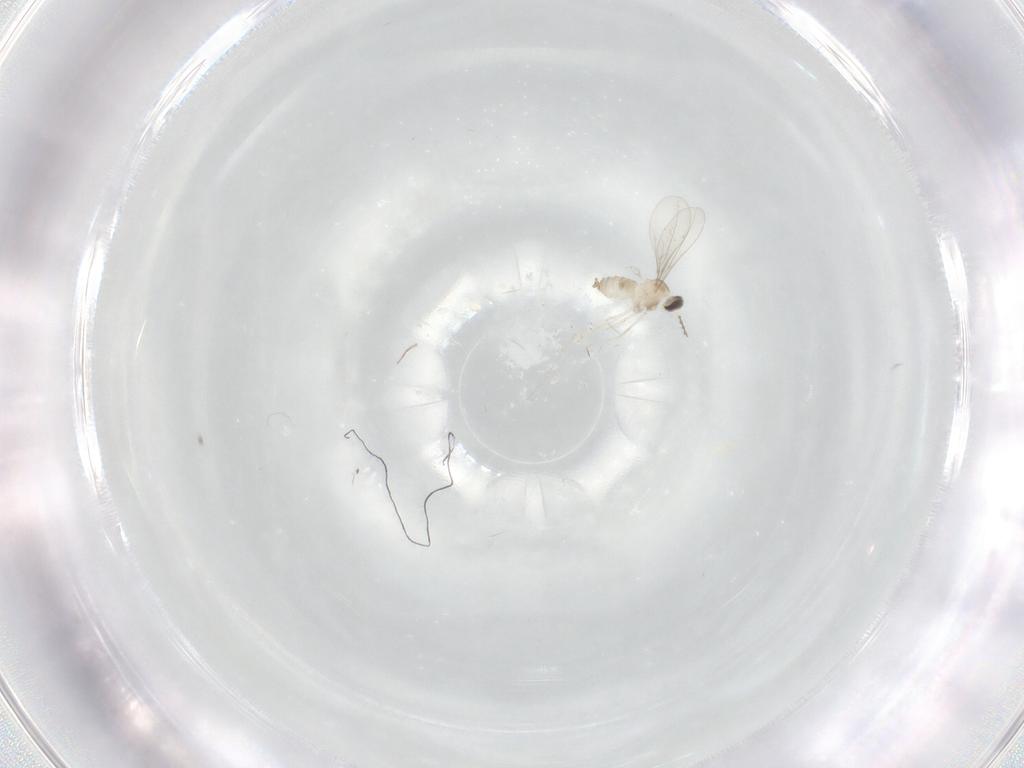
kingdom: Animalia
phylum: Arthropoda
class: Insecta
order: Diptera
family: Cecidomyiidae
